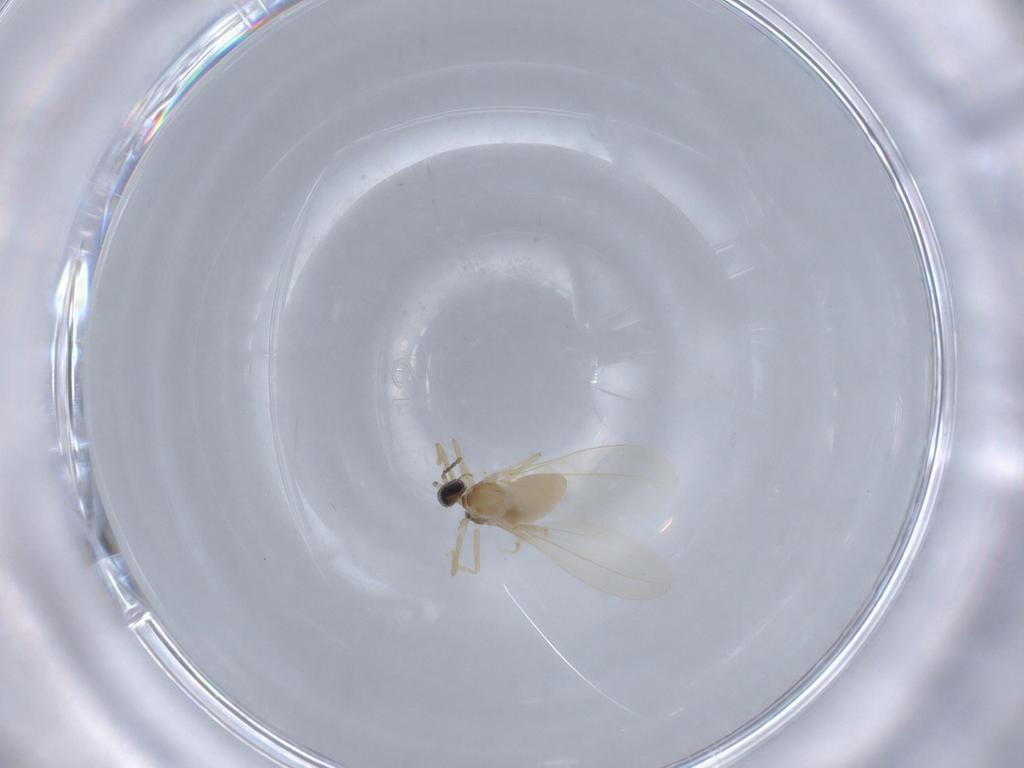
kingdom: Animalia
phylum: Arthropoda
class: Insecta
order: Diptera
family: Cecidomyiidae
